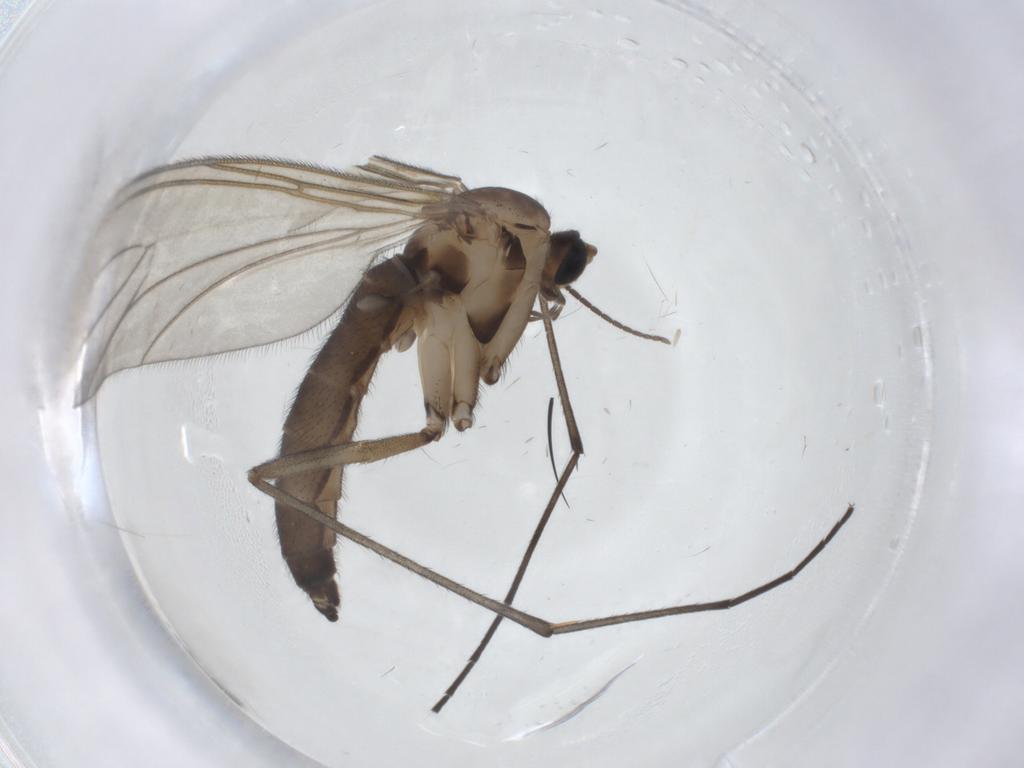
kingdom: Animalia
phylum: Arthropoda
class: Insecta
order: Diptera
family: Sciaridae
